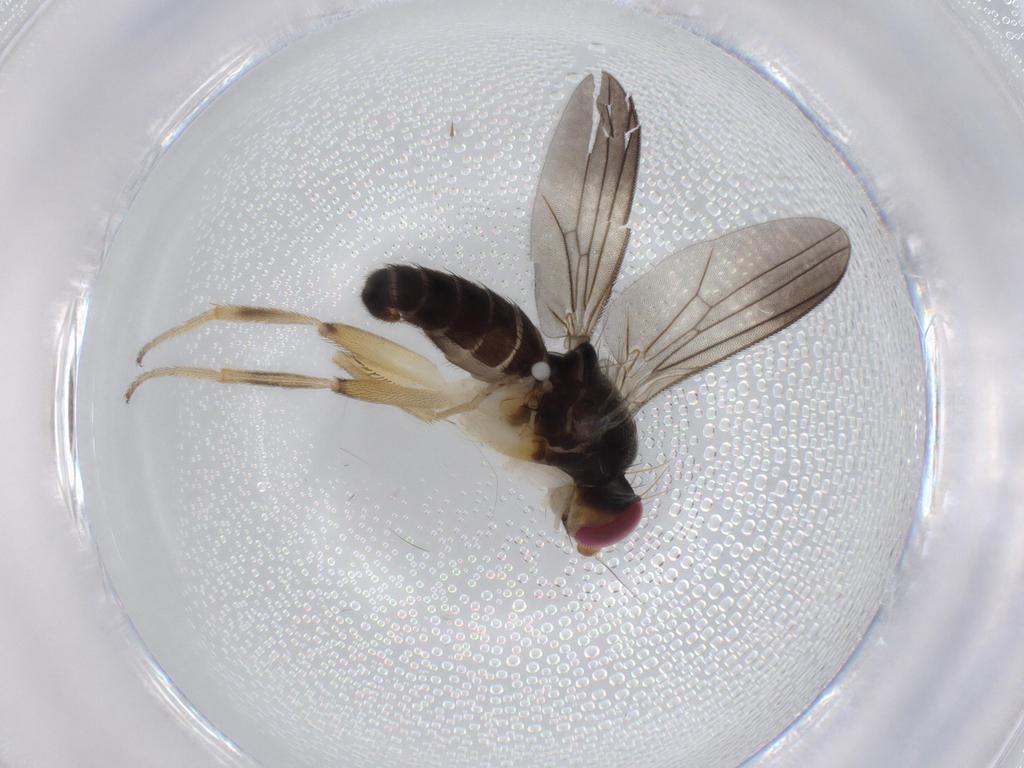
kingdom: Animalia
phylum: Arthropoda
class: Insecta
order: Diptera
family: Clusiidae
